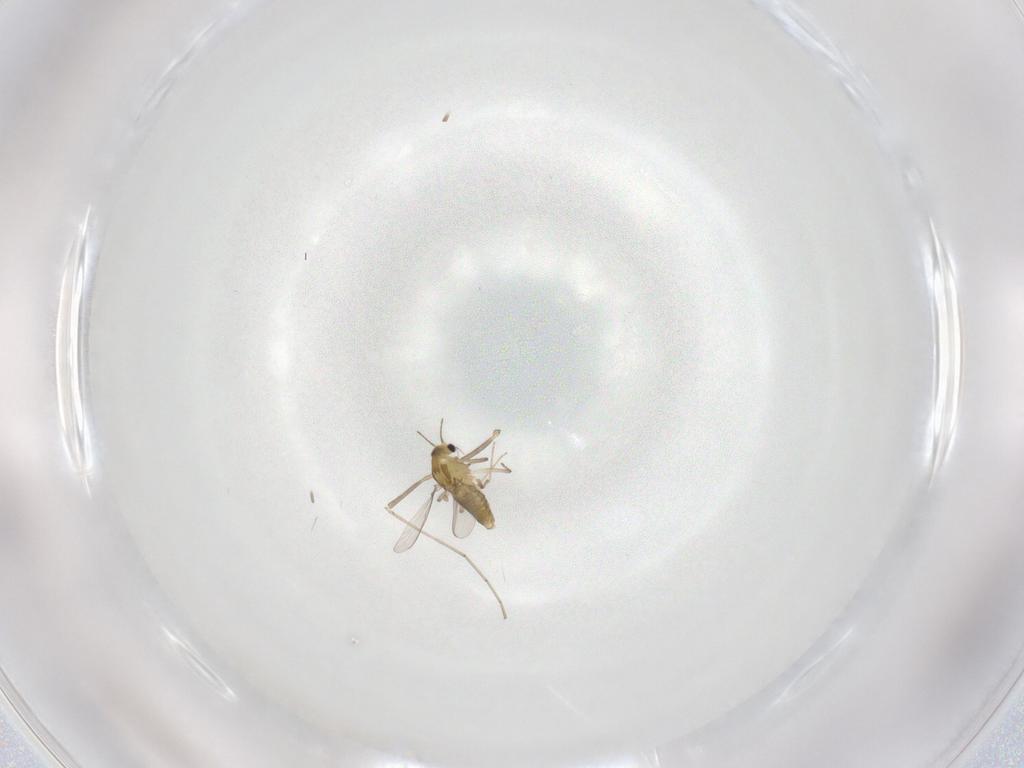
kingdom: Animalia
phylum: Arthropoda
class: Insecta
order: Diptera
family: Chironomidae
